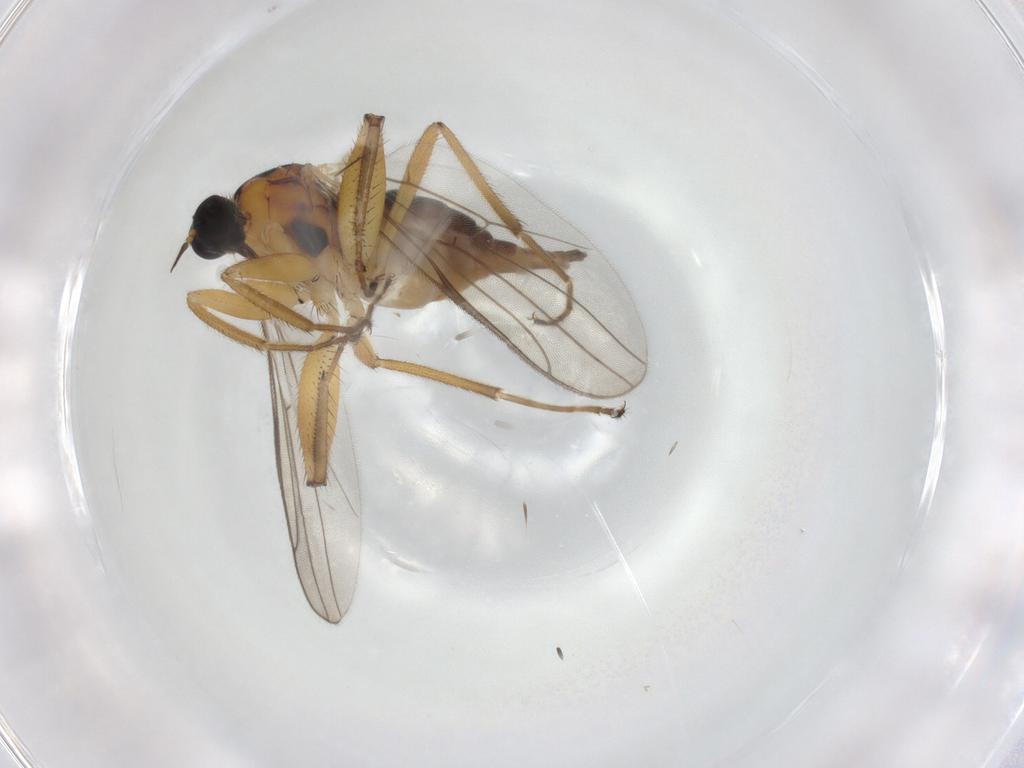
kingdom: Animalia
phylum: Arthropoda
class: Insecta
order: Diptera
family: Hybotidae
